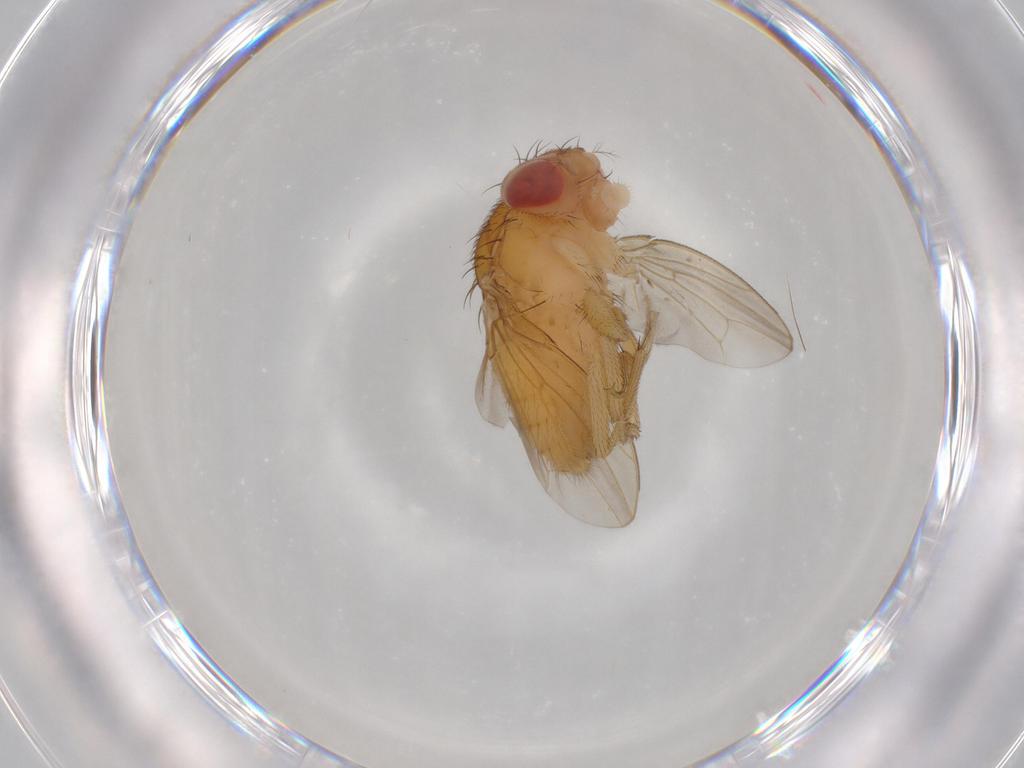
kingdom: Animalia
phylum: Arthropoda
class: Insecta
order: Diptera
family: Drosophilidae
